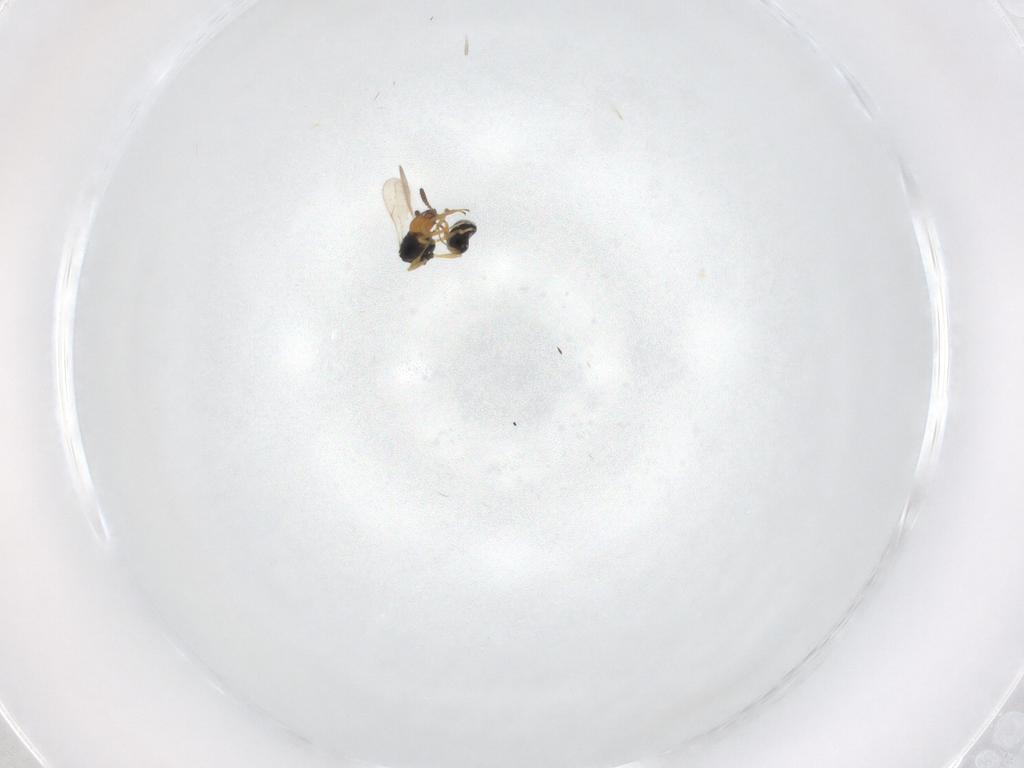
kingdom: Animalia
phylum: Arthropoda
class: Insecta
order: Hymenoptera
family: Scelionidae
